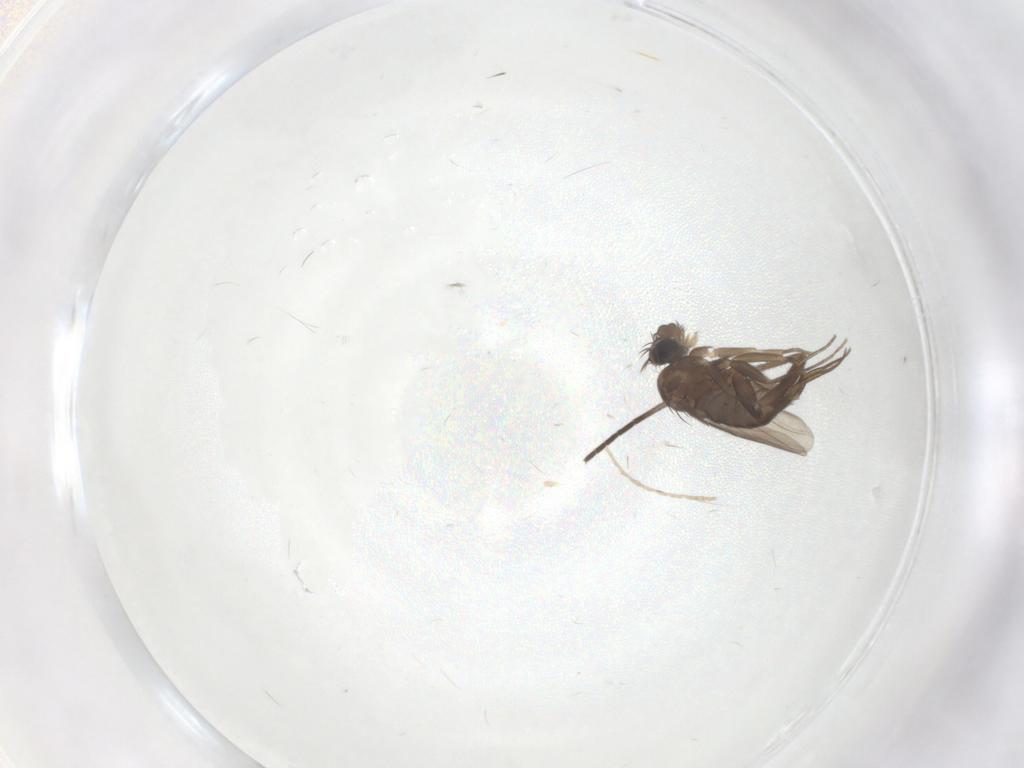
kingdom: Animalia
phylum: Arthropoda
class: Insecta
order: Diptera
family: Phoridae
